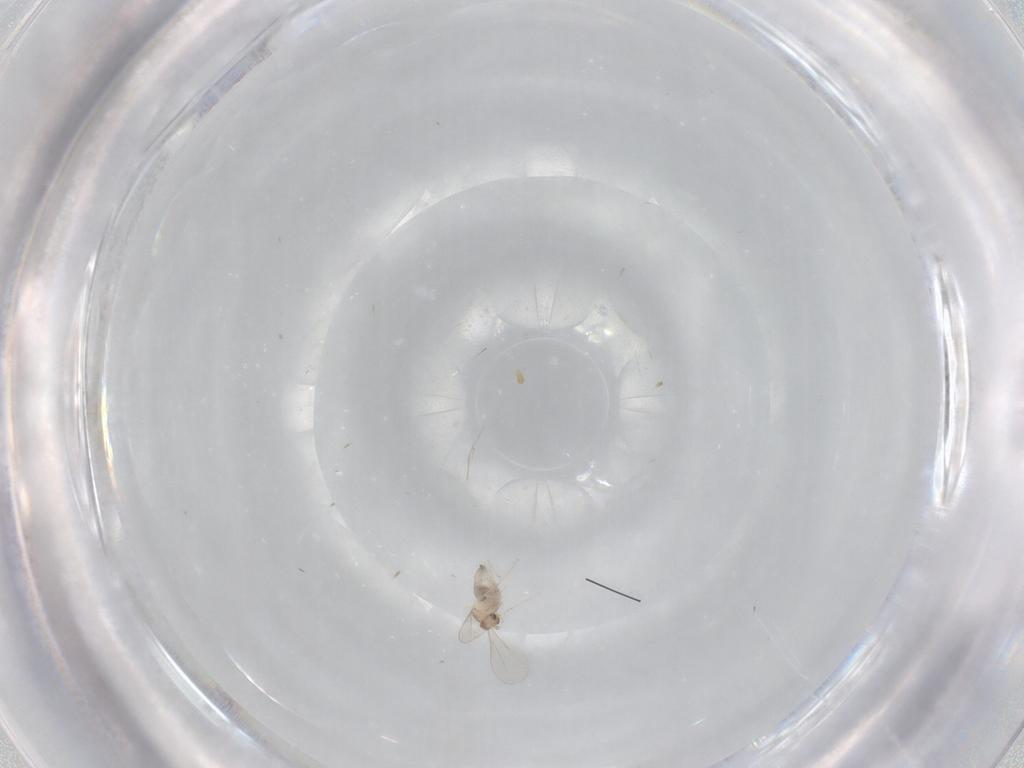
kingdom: Animalia
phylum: Arthropoda
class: Insecta
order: Diptera
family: Cecidomyiidae
